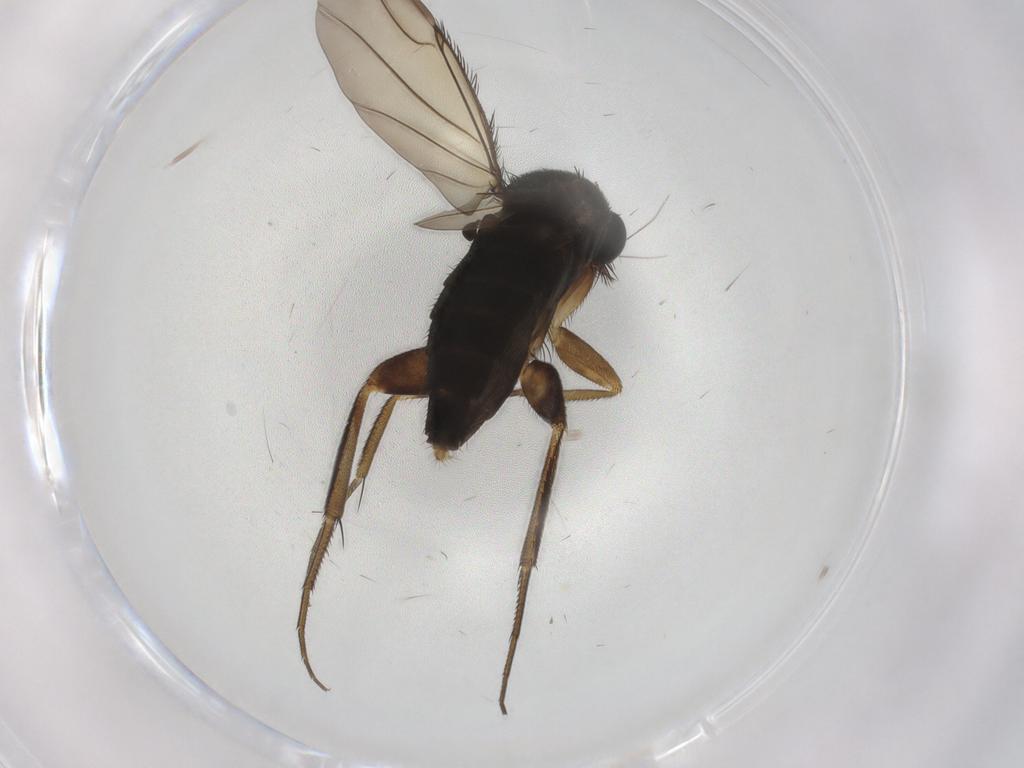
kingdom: Animalia
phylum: Arthropoda
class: Insecta
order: Diptera
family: Phoridae
